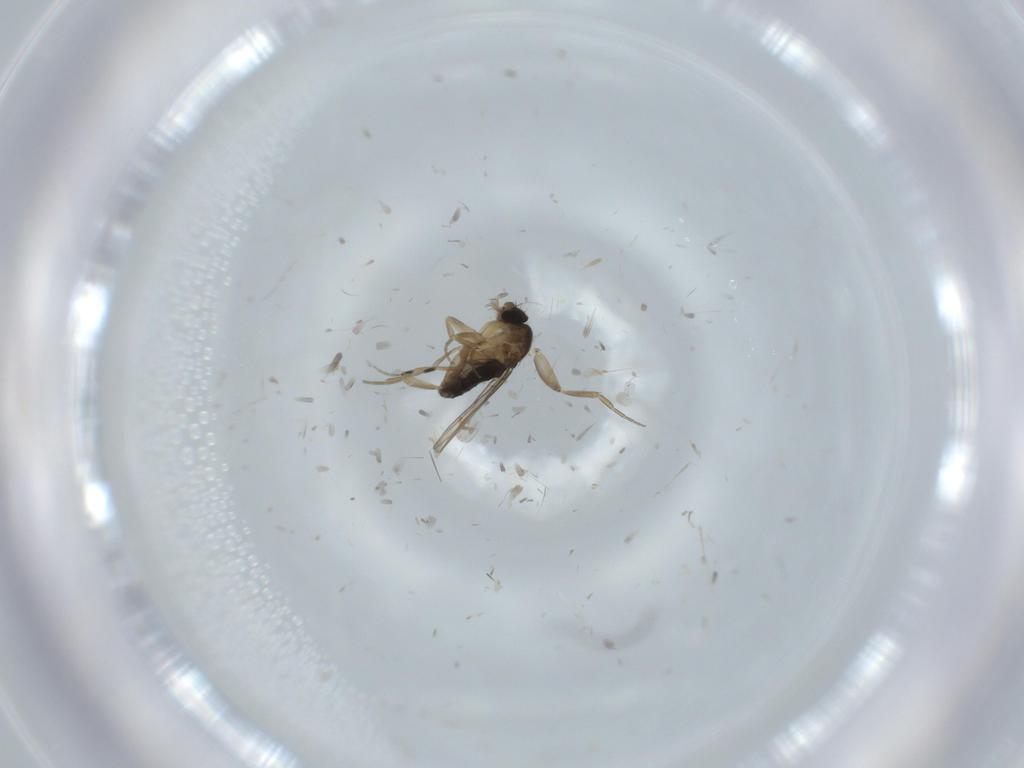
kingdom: Animalia
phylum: Arthropoda
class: Insecta
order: Diptera
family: Phoridae
